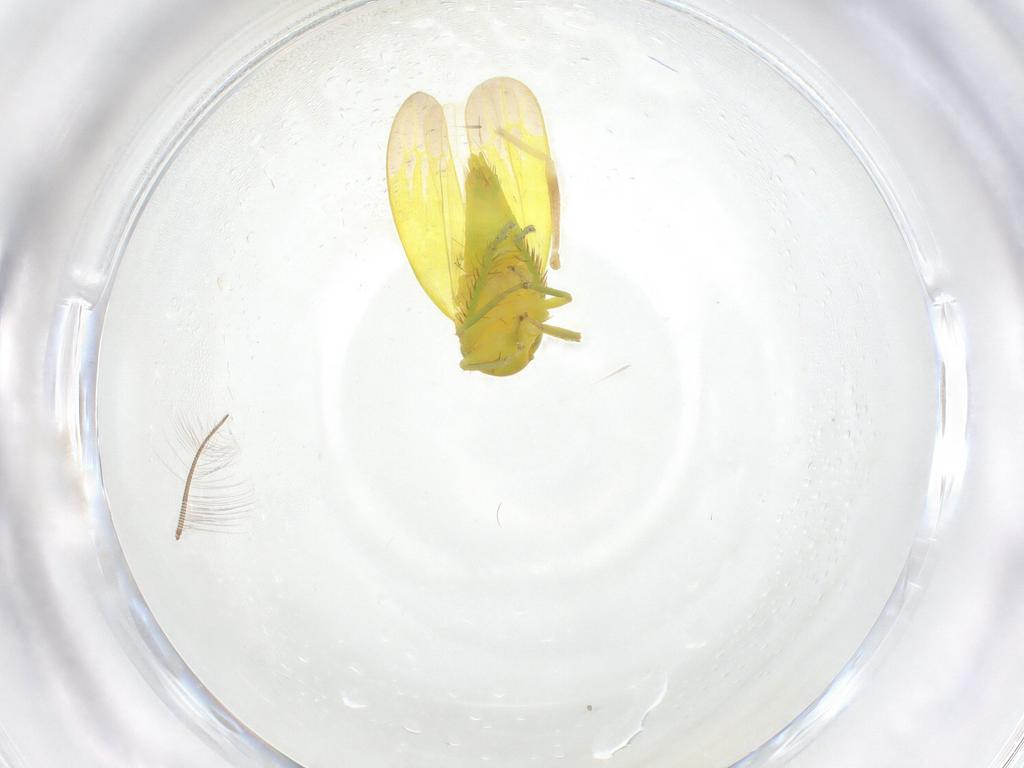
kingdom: Animalia
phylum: Arthropoda
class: Insecta
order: Hemiptera
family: Cicadellidae
